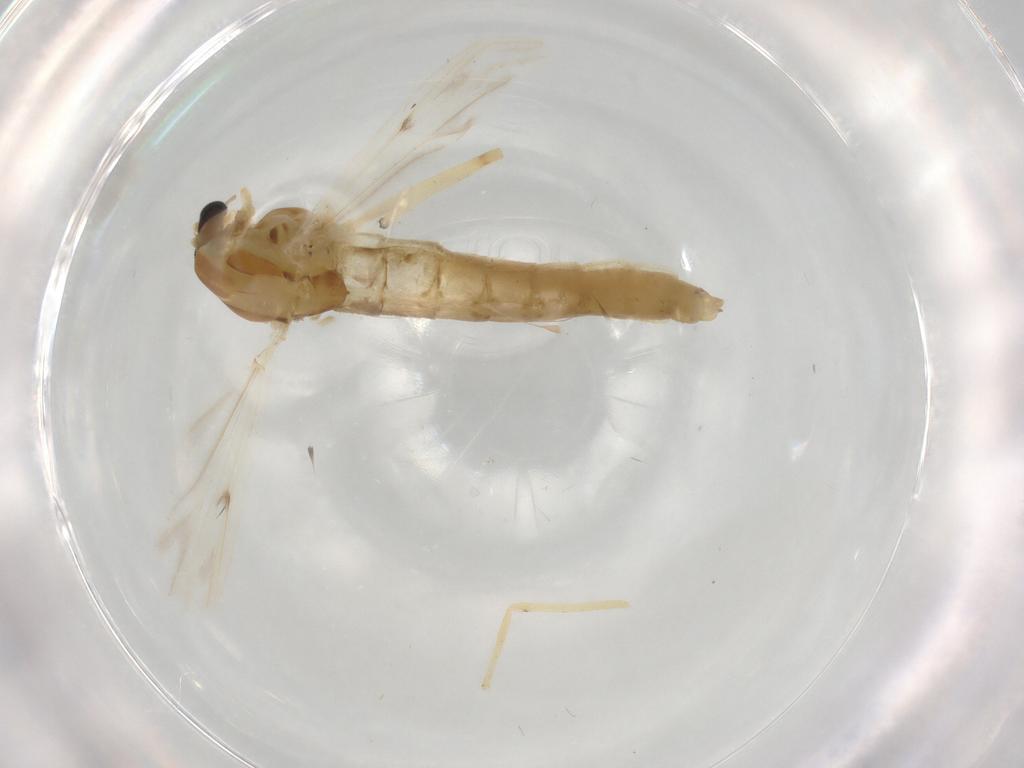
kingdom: Animalia
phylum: Arthropoda
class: Insecta
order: Diptera
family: Chironomidae
